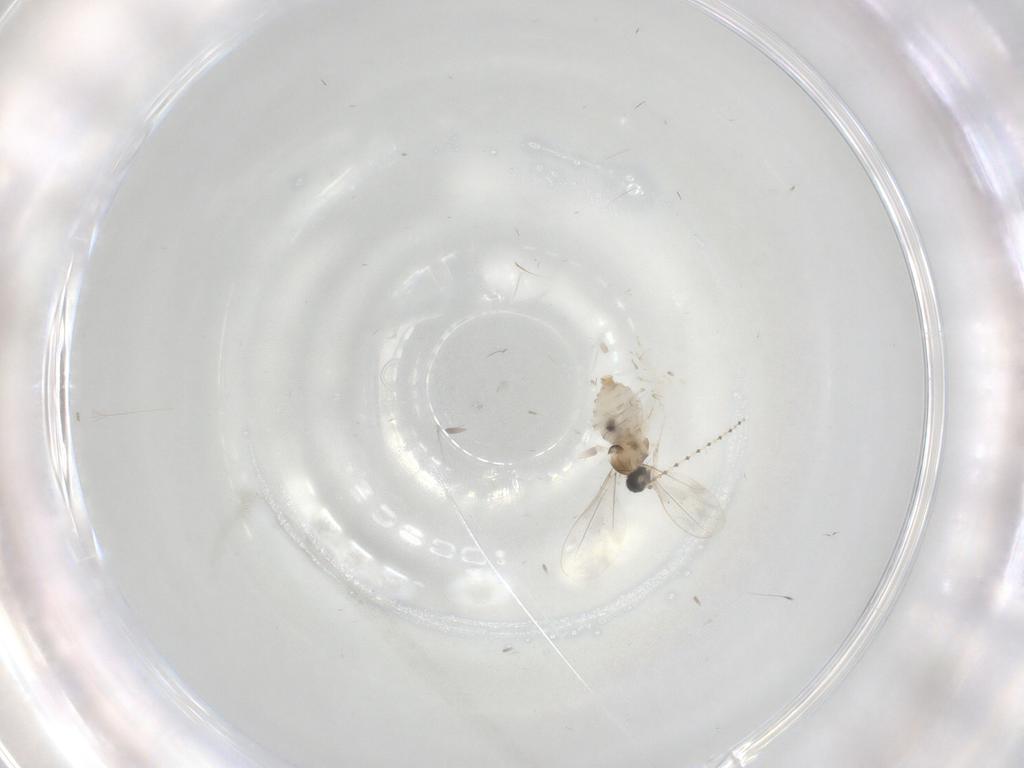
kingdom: Animalia
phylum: Arthropoda
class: Insecta
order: Diptera
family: Cecidomyiidae
